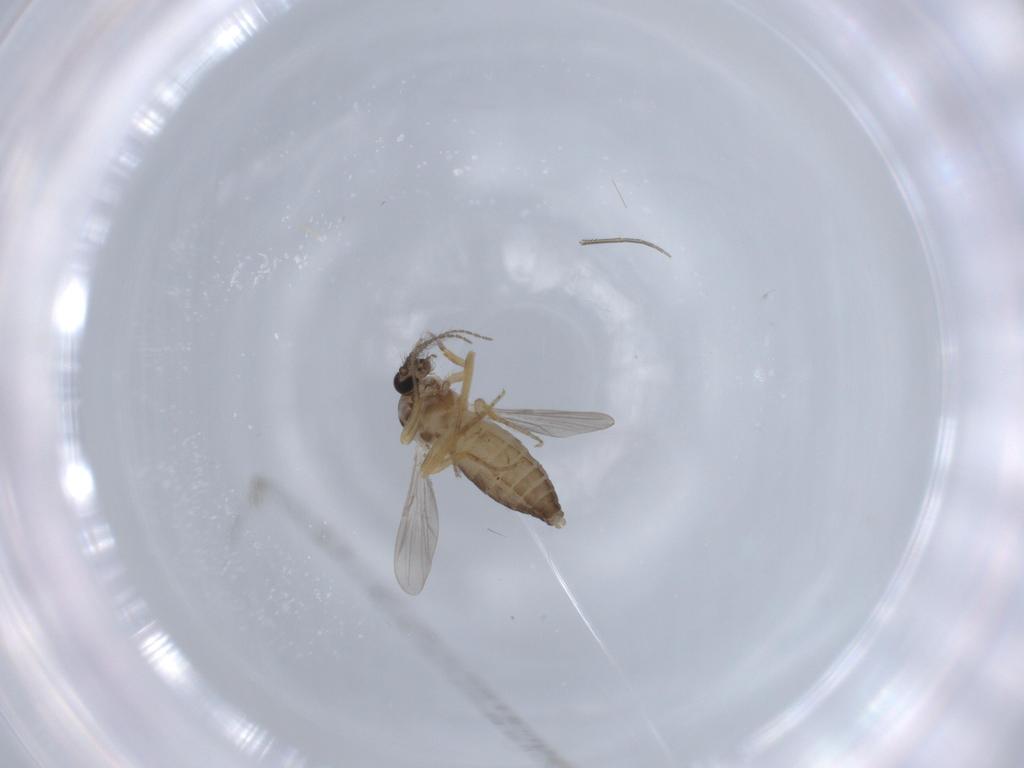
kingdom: Animalia
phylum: Arthropoda
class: Insecta
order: Diptera
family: Ceratopogonidae
